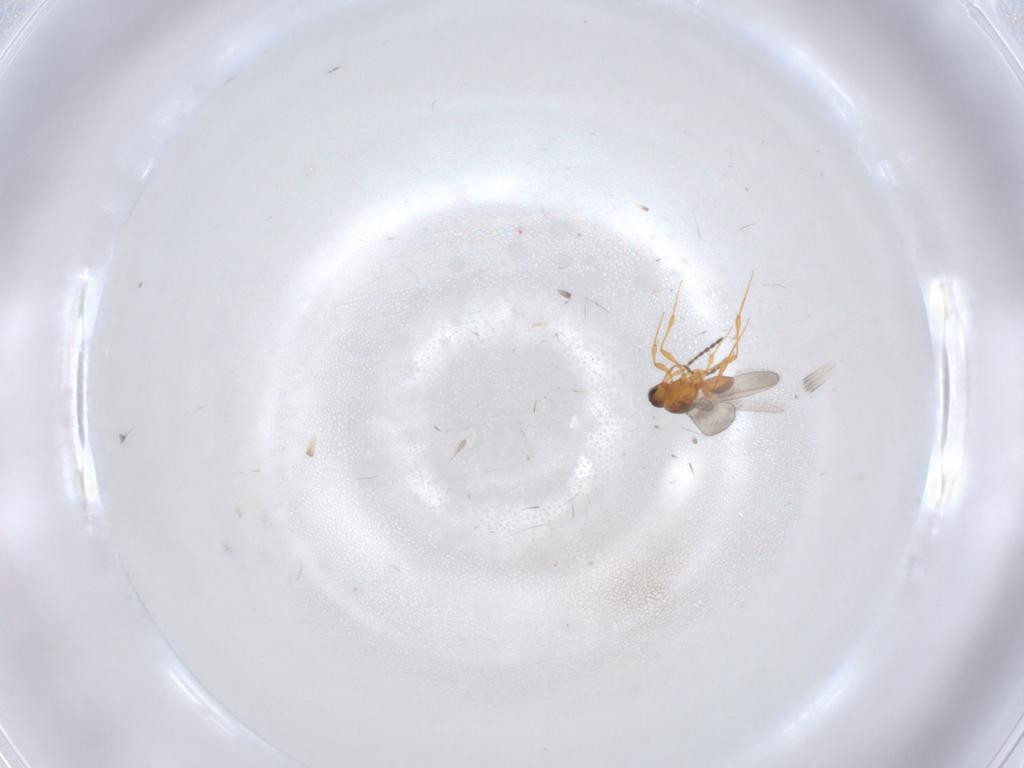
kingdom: Animalia
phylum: Arthropoda
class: Insecta
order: Hymenoptera
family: Platygastridae
